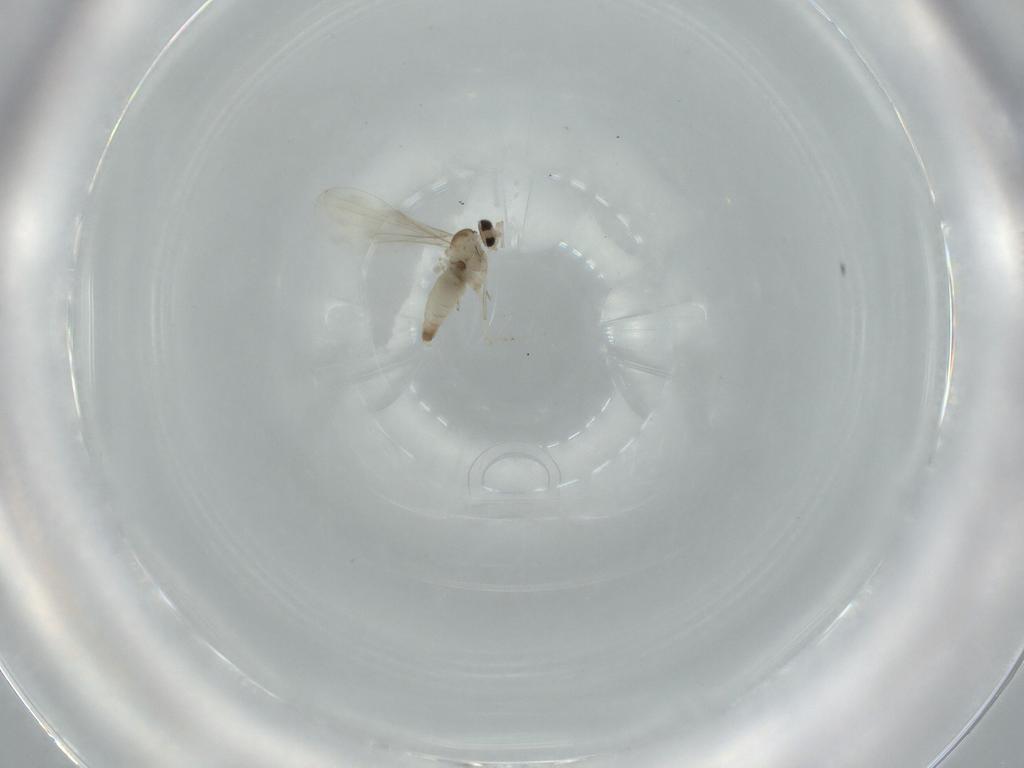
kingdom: Animalia
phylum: Arthropoda
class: Insecta
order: Diptera
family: Cecidomyiidae
